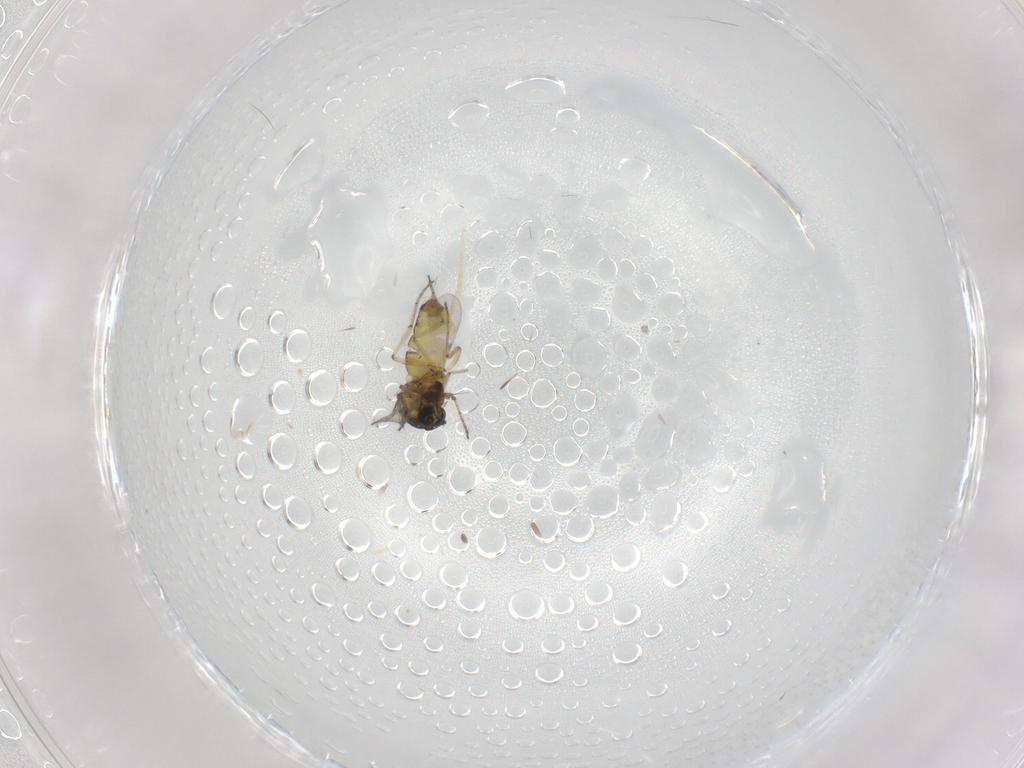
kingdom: Animalia
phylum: Arthropoda
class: Insecta
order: Diptera
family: Ceratopogonidae
